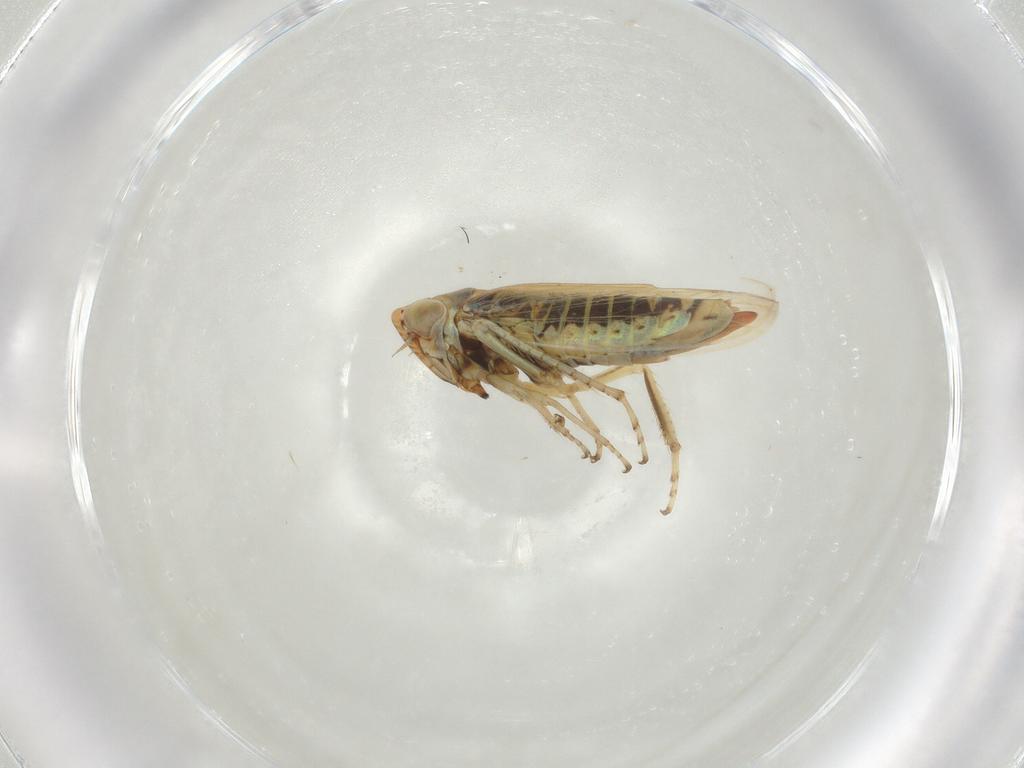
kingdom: Animalia
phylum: Arthropoda
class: Insecta
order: Hemiptera
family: Cicadellidae
